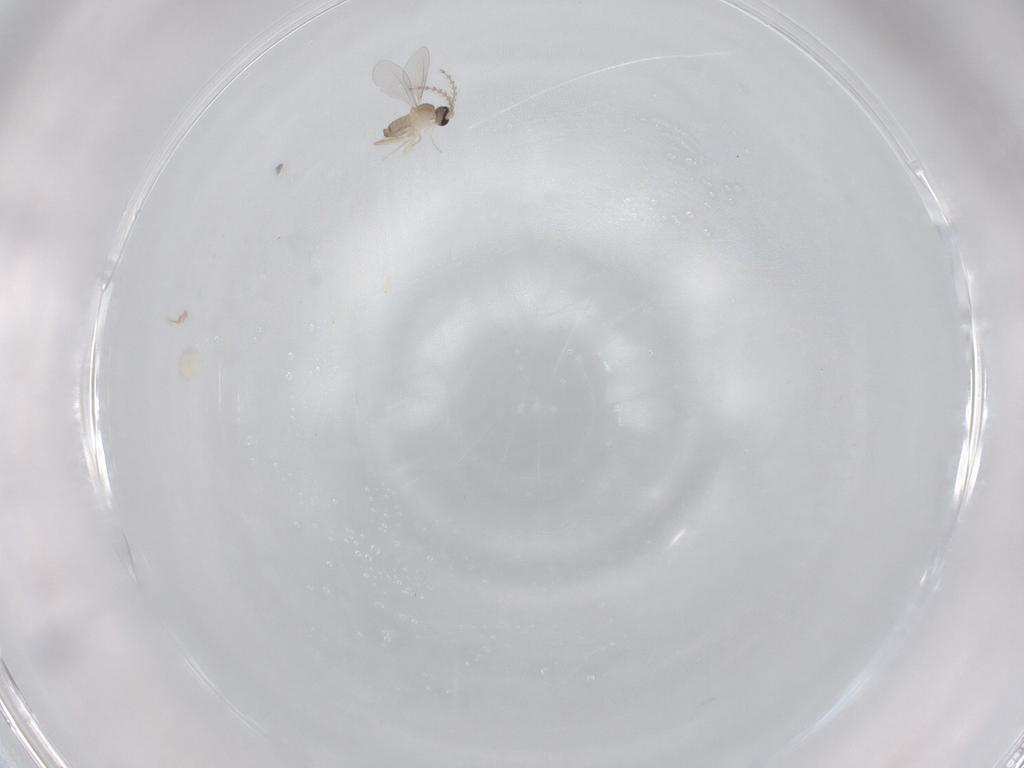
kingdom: Animalia
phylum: Arthropoda
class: Insecta
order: Diptera
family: Cecidomyiidae
